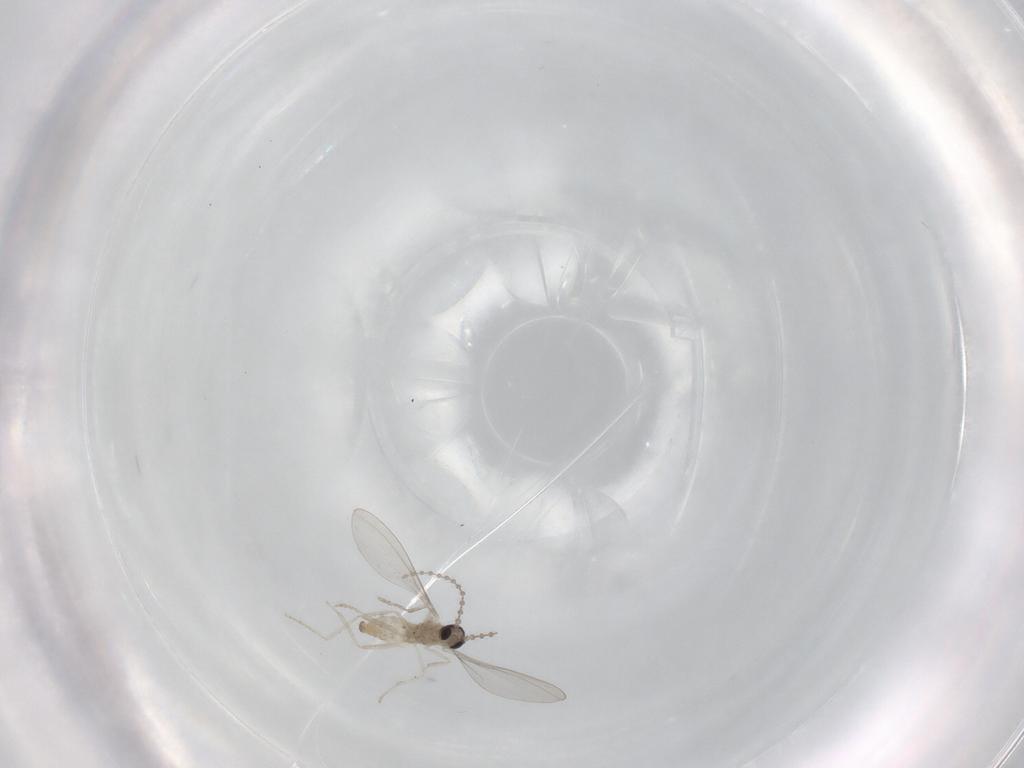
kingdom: Animalia
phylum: Arthropoda
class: Insecta
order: Diptera
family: Cecidomyiidae
